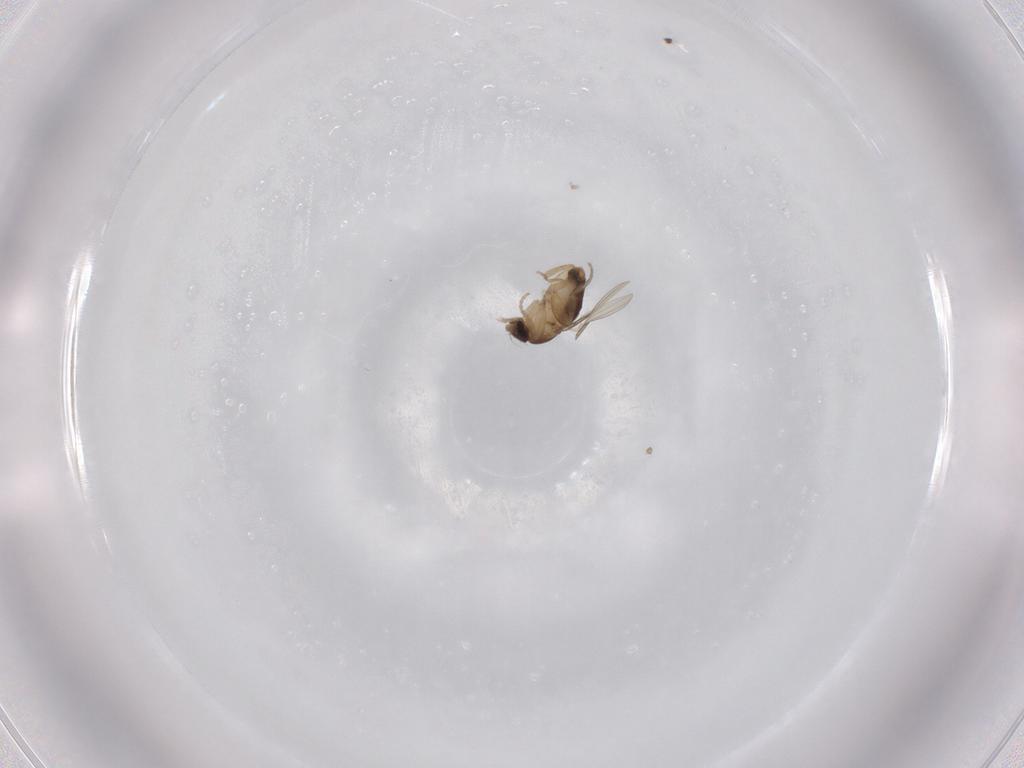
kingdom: Animalia
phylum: Arthropoda
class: Insecta
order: Diptera
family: Phoridae
